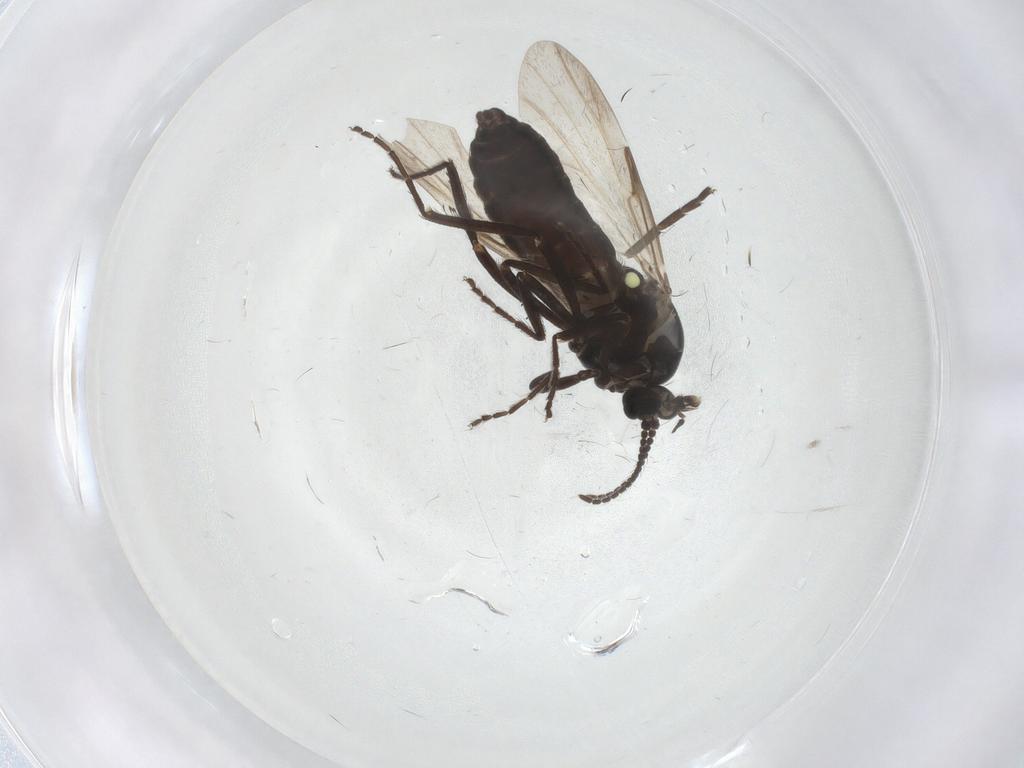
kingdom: Animalia
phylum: Arthropoda
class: Insecta
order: Diptera
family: Ceratopogonidae
